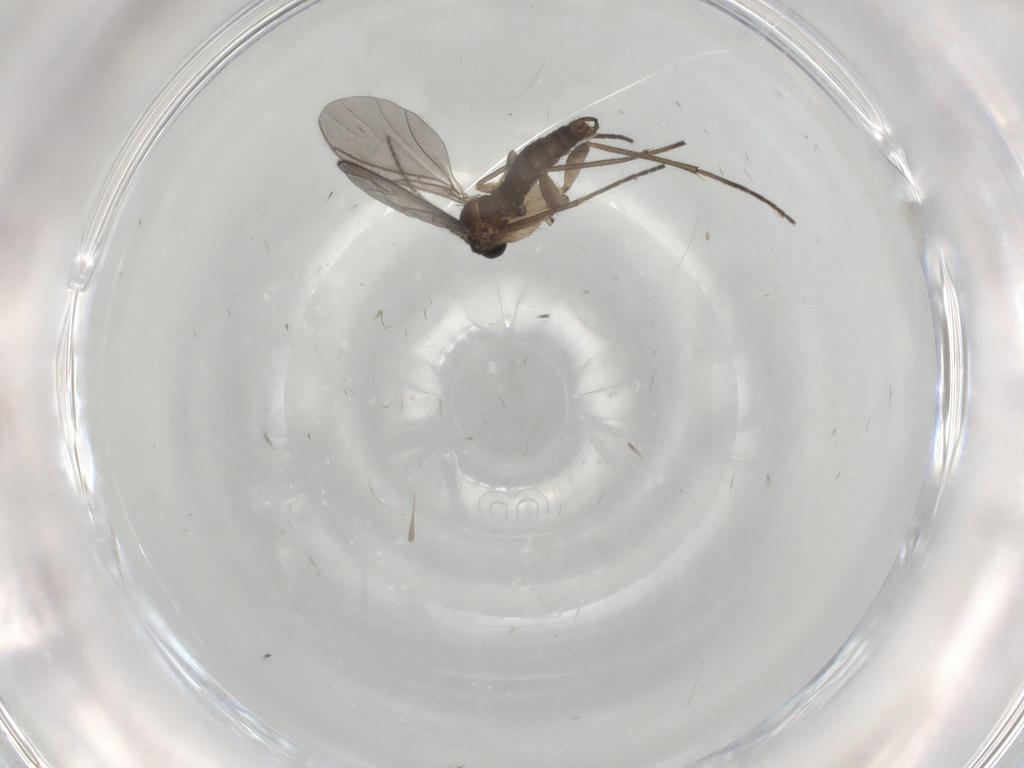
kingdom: Animalia
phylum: Arthropoda
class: Insecta
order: Diptera
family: Sciaridae
